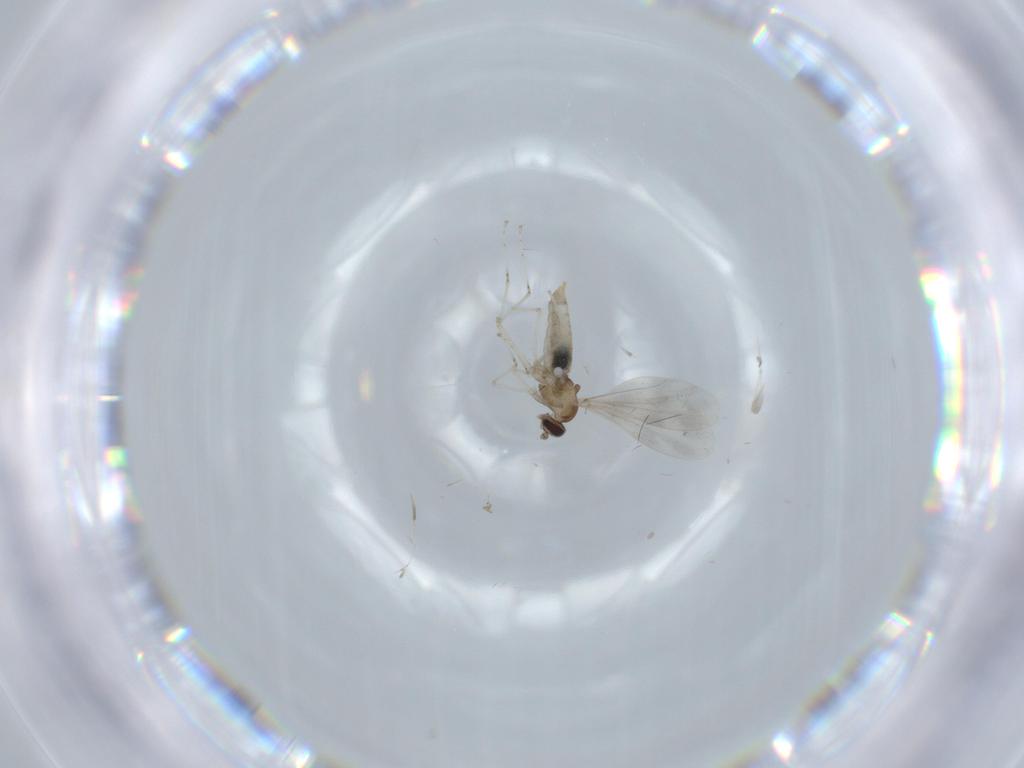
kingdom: Animalia
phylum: Arthropoda
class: Insecta
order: Diptera
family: Cecidomyiidae
